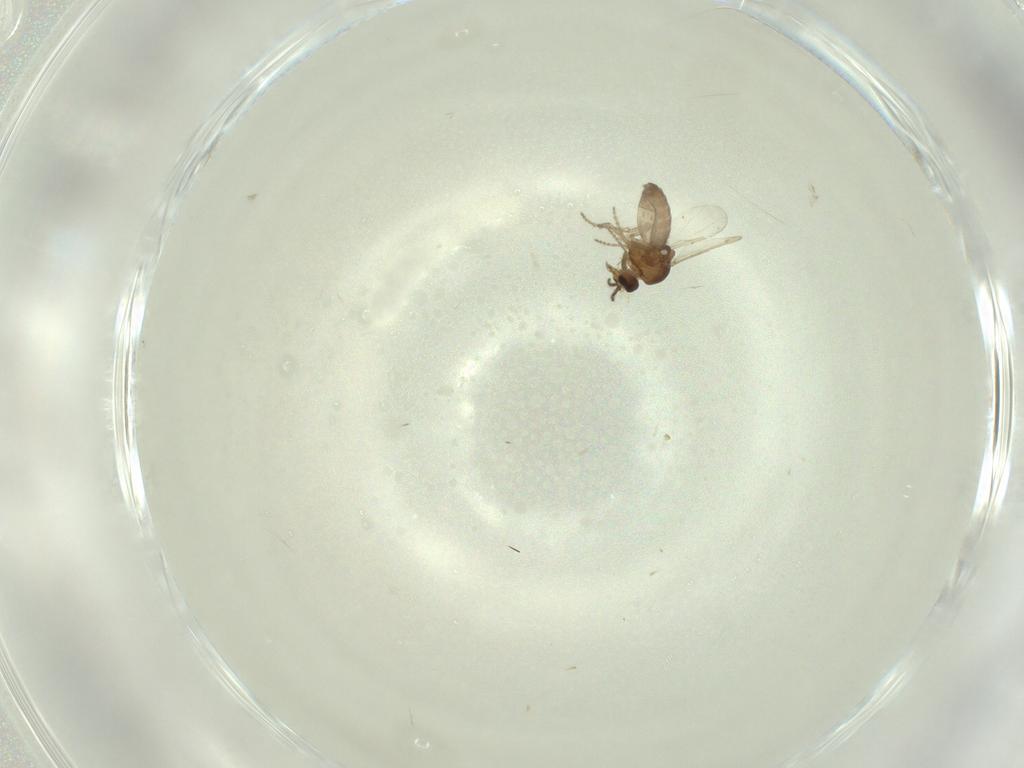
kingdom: Animalia
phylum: Arthropoda
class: Insecta
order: Diptera
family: Ceratopogonidae
